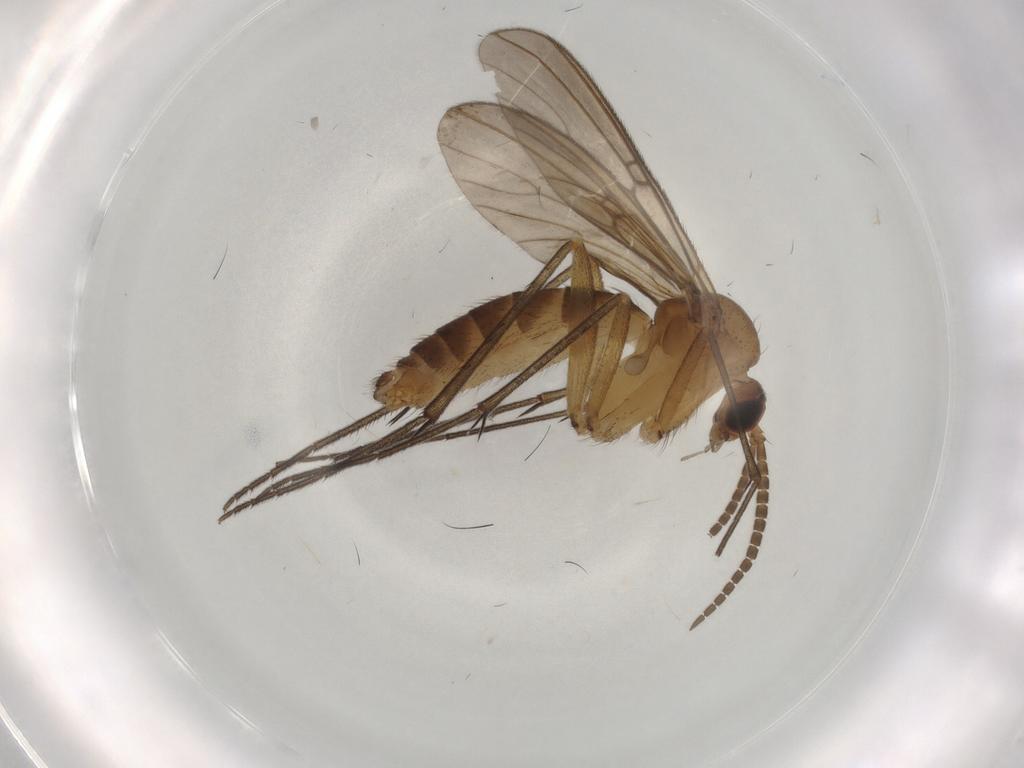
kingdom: Animalia
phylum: Arthropoda
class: Insecta
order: Diptera
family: Dolichopodidae
